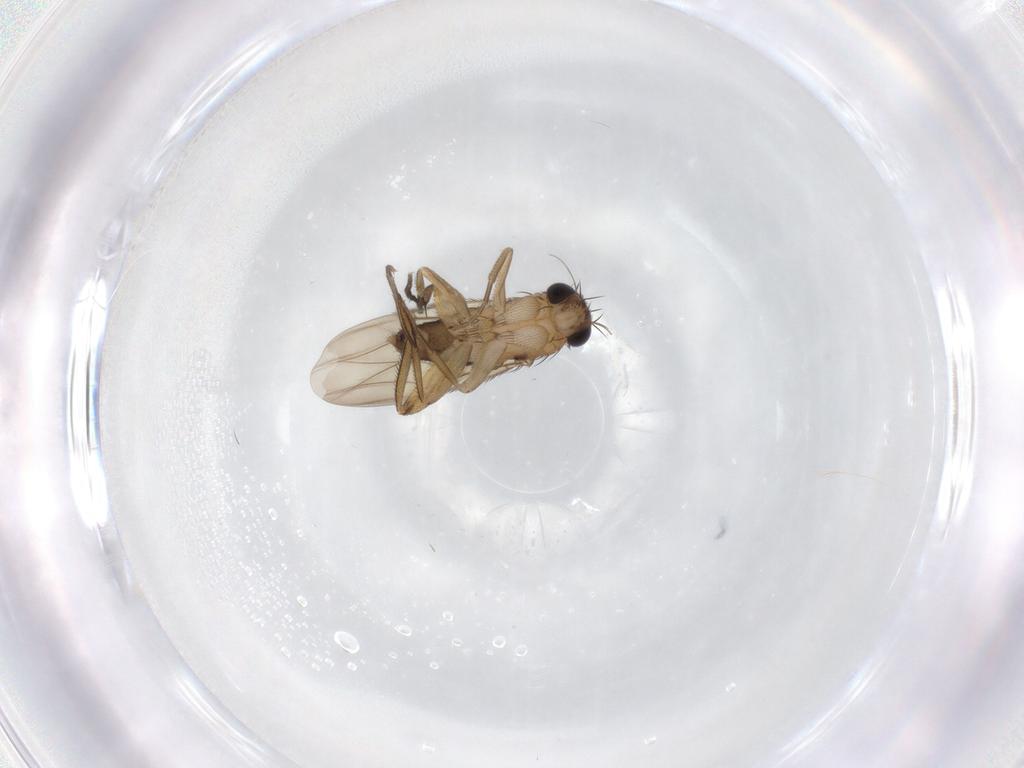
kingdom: Animalia
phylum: Arthropoda
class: Insecta
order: Diptera
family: Phoridae
